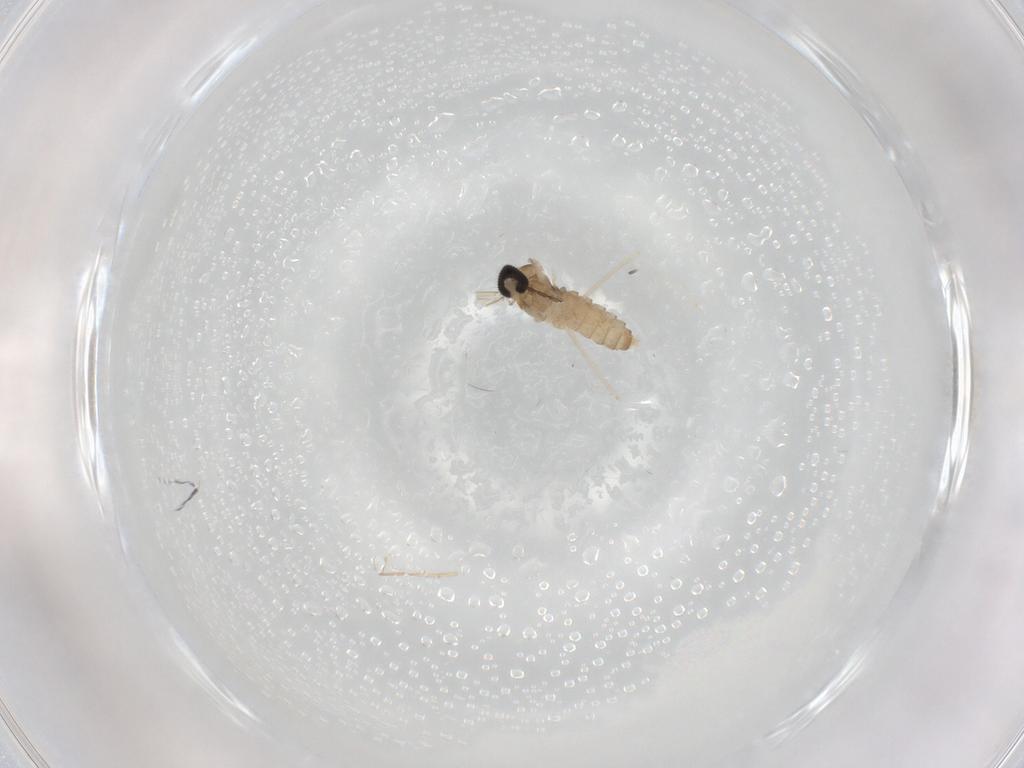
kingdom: Animalia
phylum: Arthropoda
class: Insecta
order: Diptera
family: Cecidomyiidae
